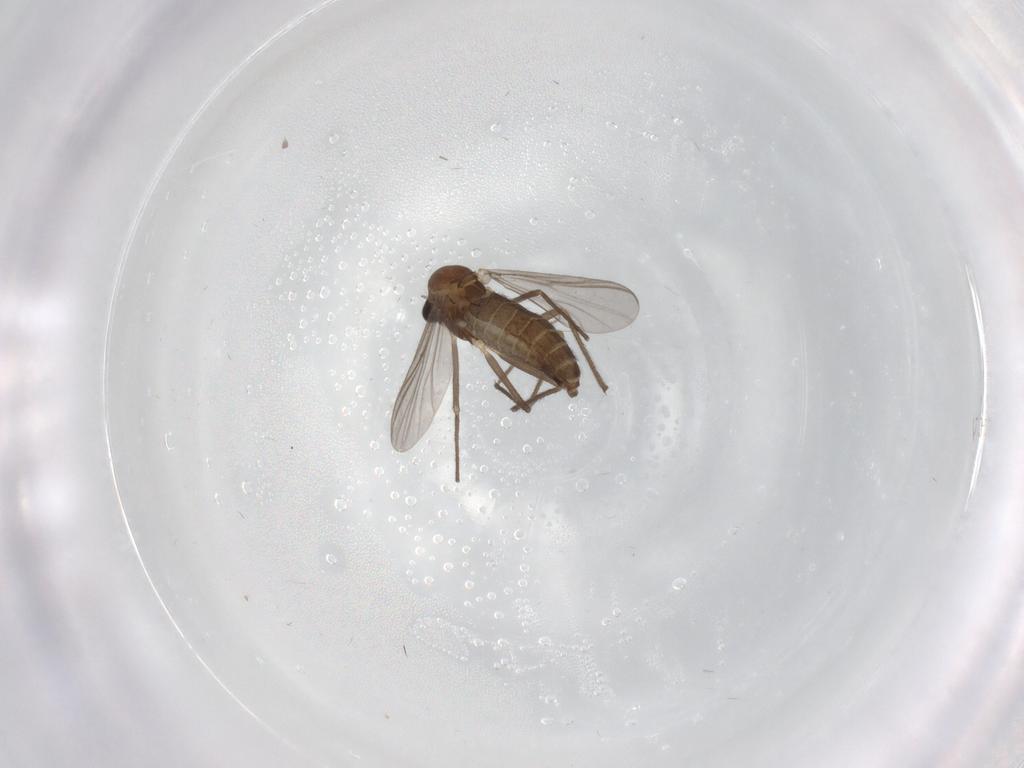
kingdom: Animalia
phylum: Arthropoda
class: Insecta
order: Diptera
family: Chironomidae
